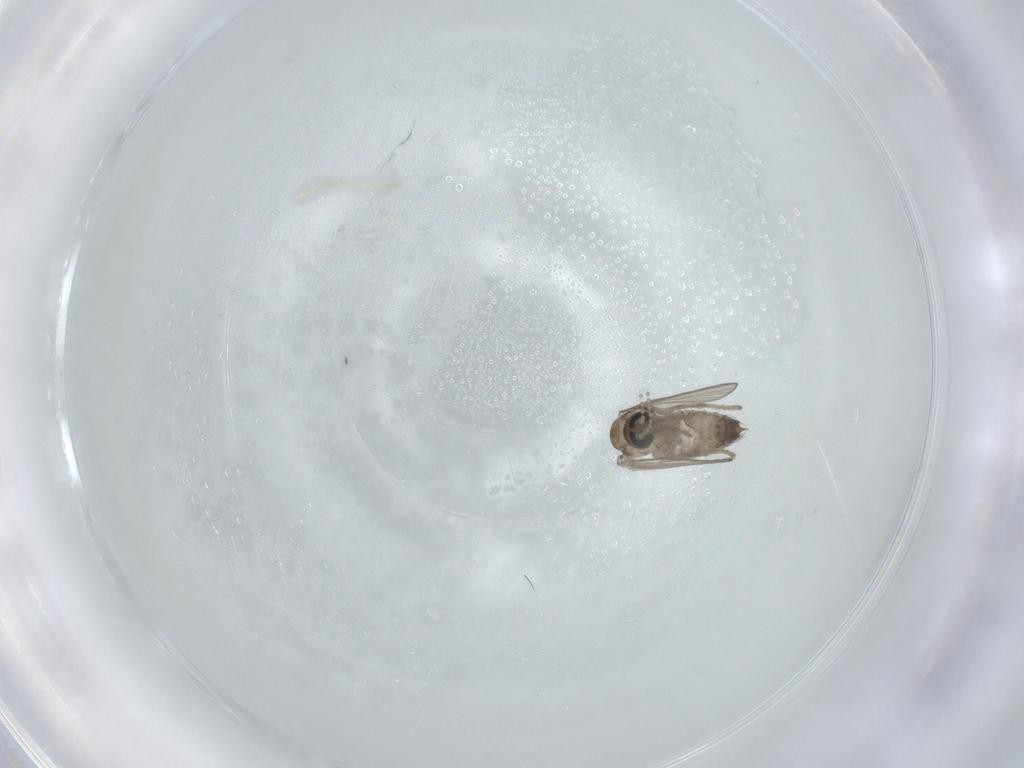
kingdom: Animalia
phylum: Arthropoda
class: Insecta
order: Diptera
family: Psychodidae
